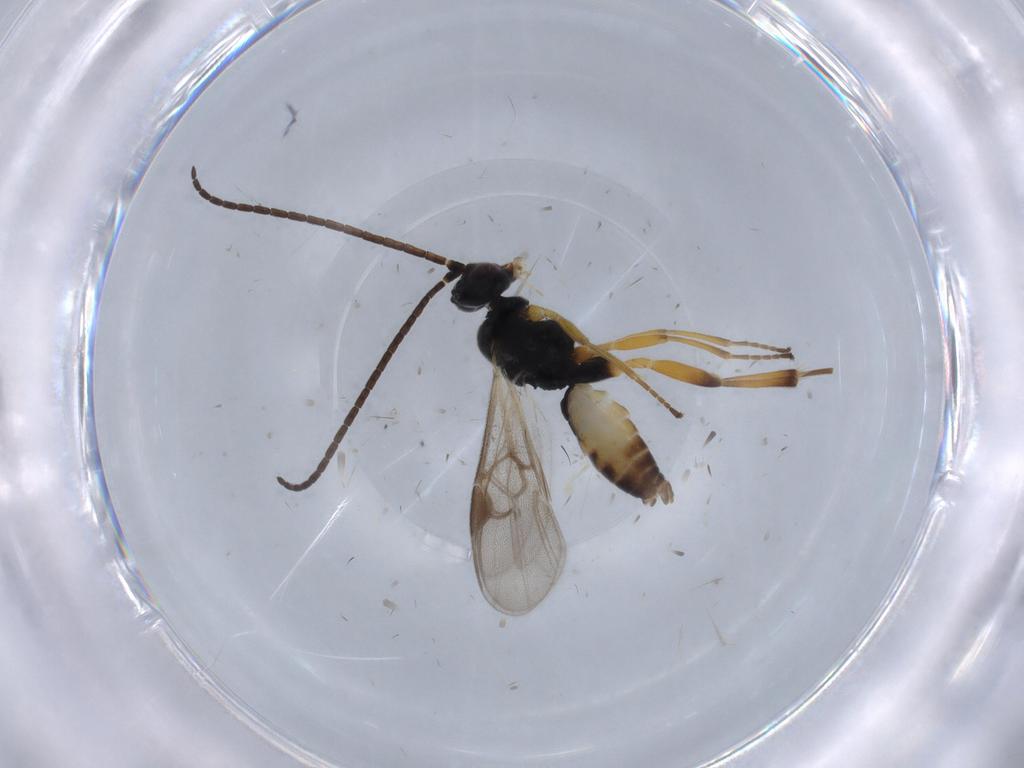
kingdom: Animalia
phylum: Arthropoda
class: Insecta
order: Hymenoptera
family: Braconidae
